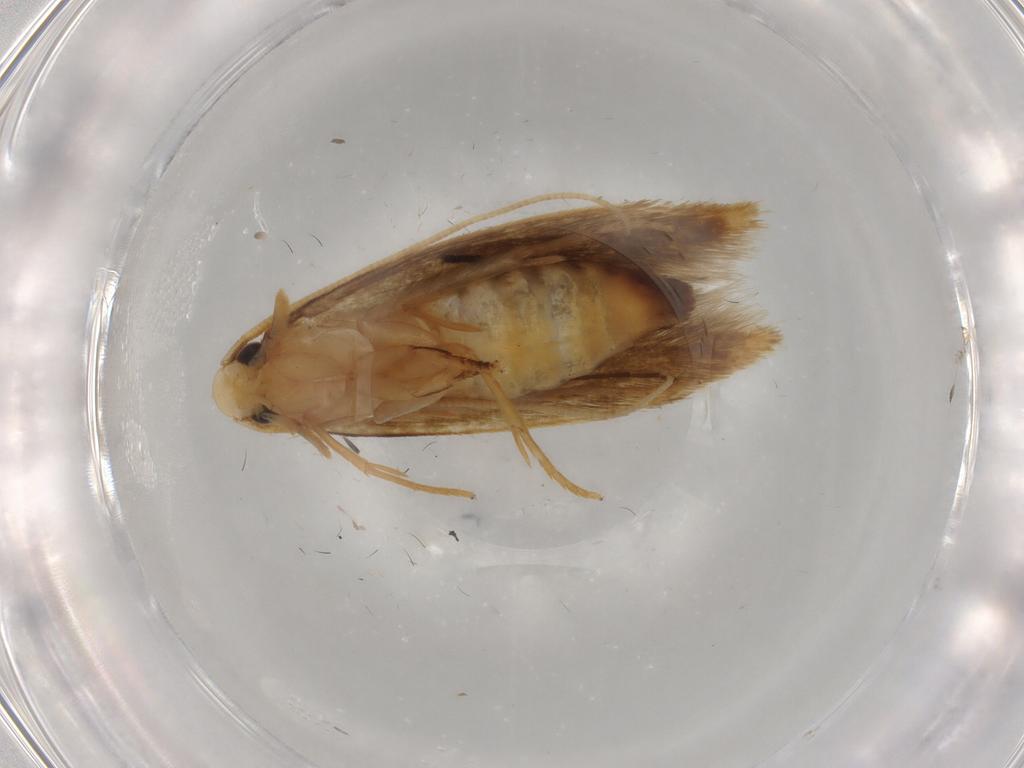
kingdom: Animalia
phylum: Arthropoda
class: Insecta
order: Lepidoptera
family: Tineidae
